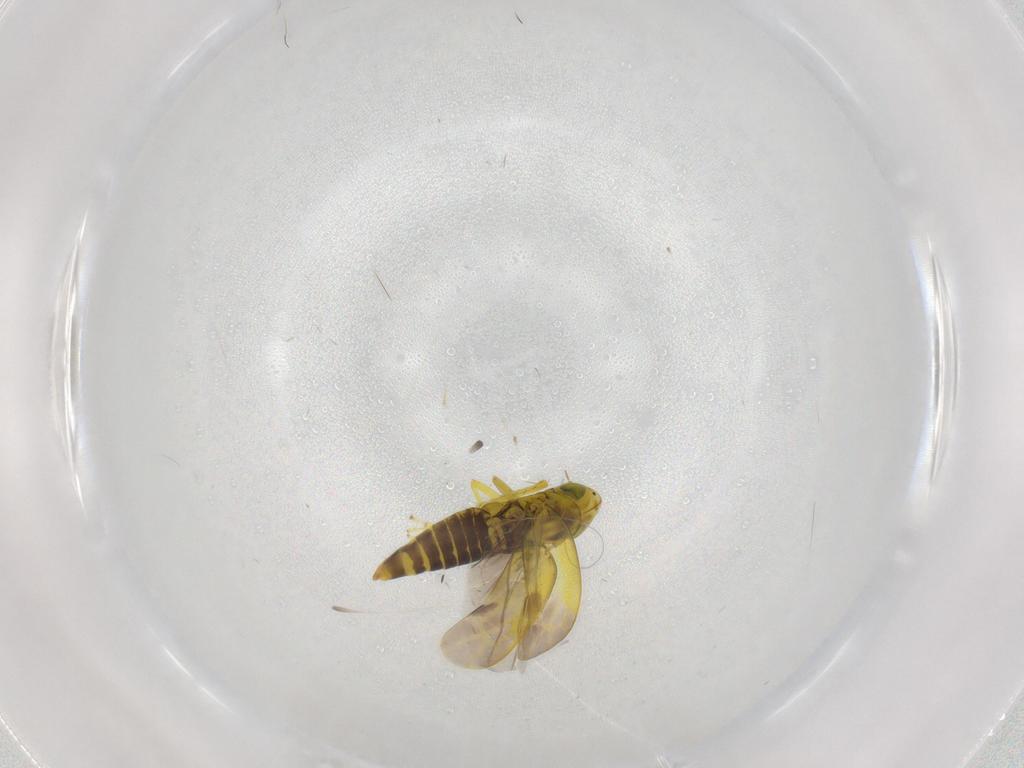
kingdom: Animalia
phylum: Arthropoda
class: Insecta
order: Hemiptera
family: Cicadellidae
